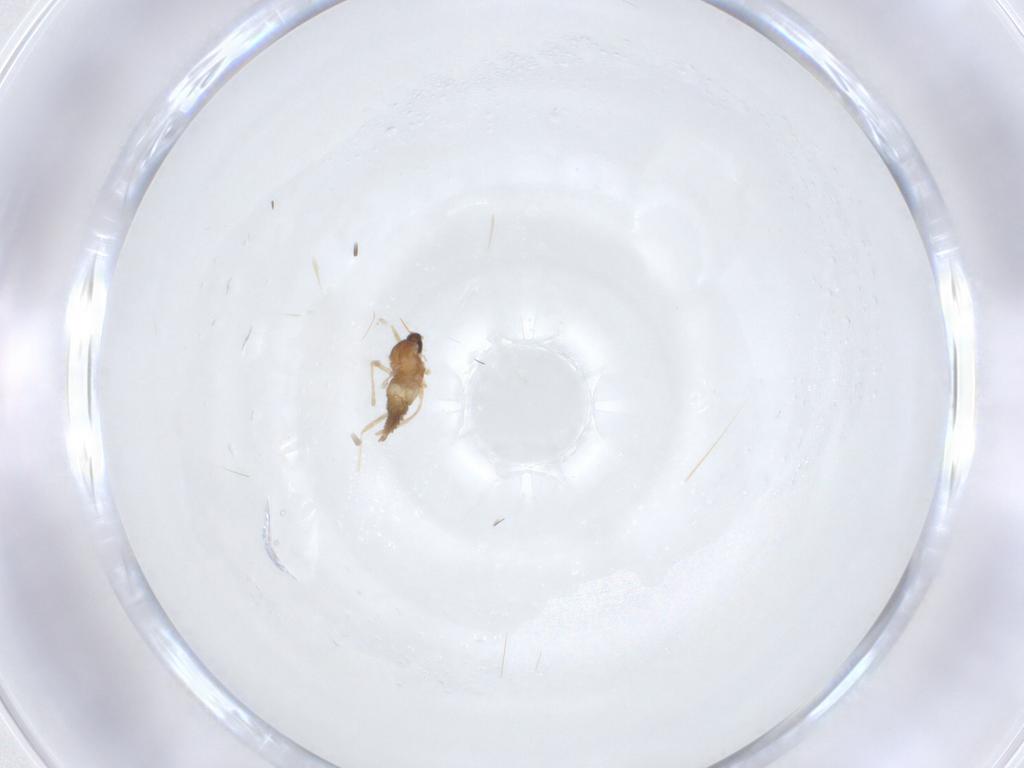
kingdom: Animalia
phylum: Arthropoda
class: Insecta
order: Diptera
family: Cecidomyiidae
